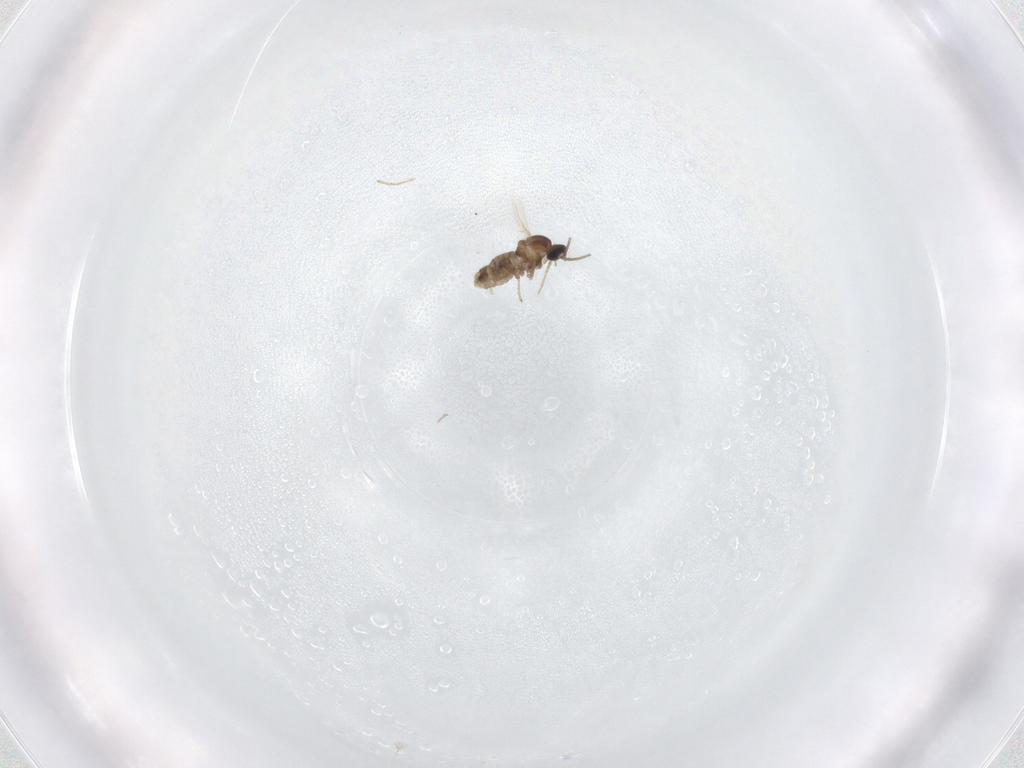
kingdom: Animalia
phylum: Arthropoda
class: Insecta
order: Diptera
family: Cecidomyiidae
